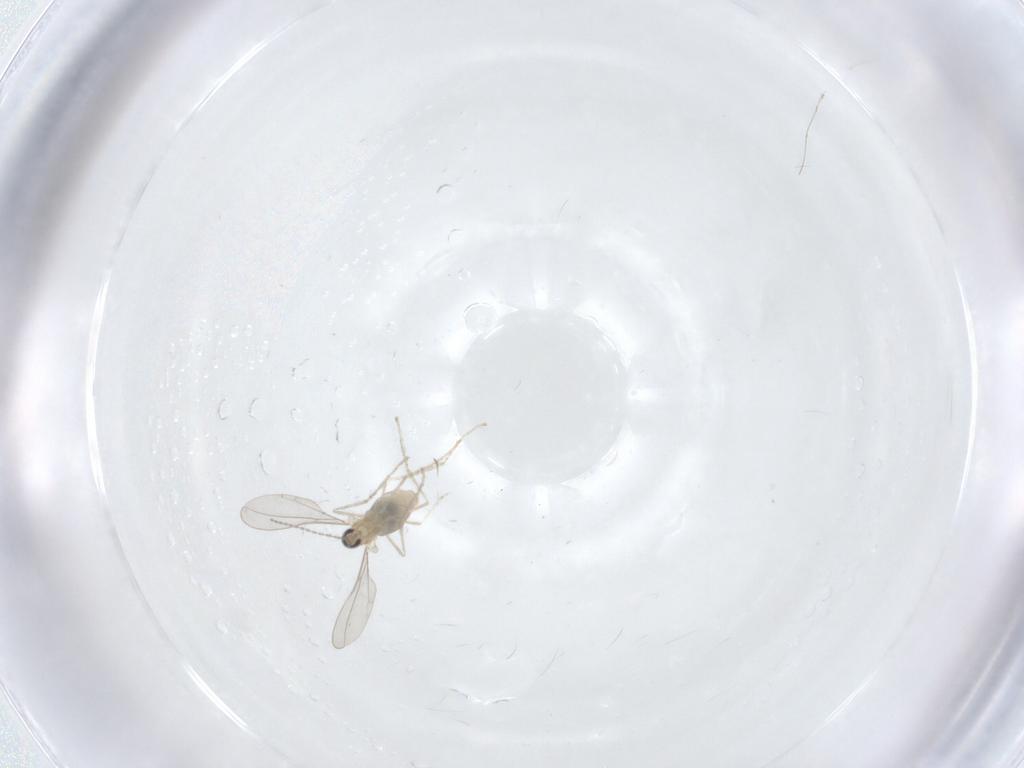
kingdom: Animalia
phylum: Arthropoda
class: Insecta
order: Diptera
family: Cecidomyiidae
